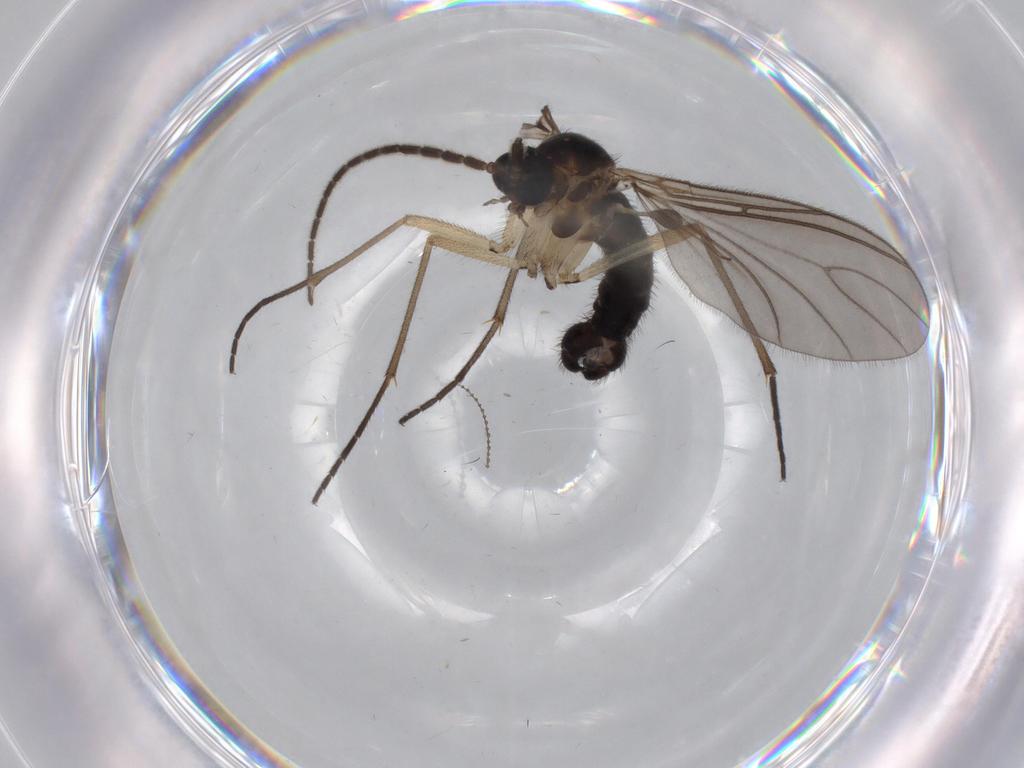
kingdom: Animalia
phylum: Arthropoda
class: Insecta
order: Diptera
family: Sciaridae
